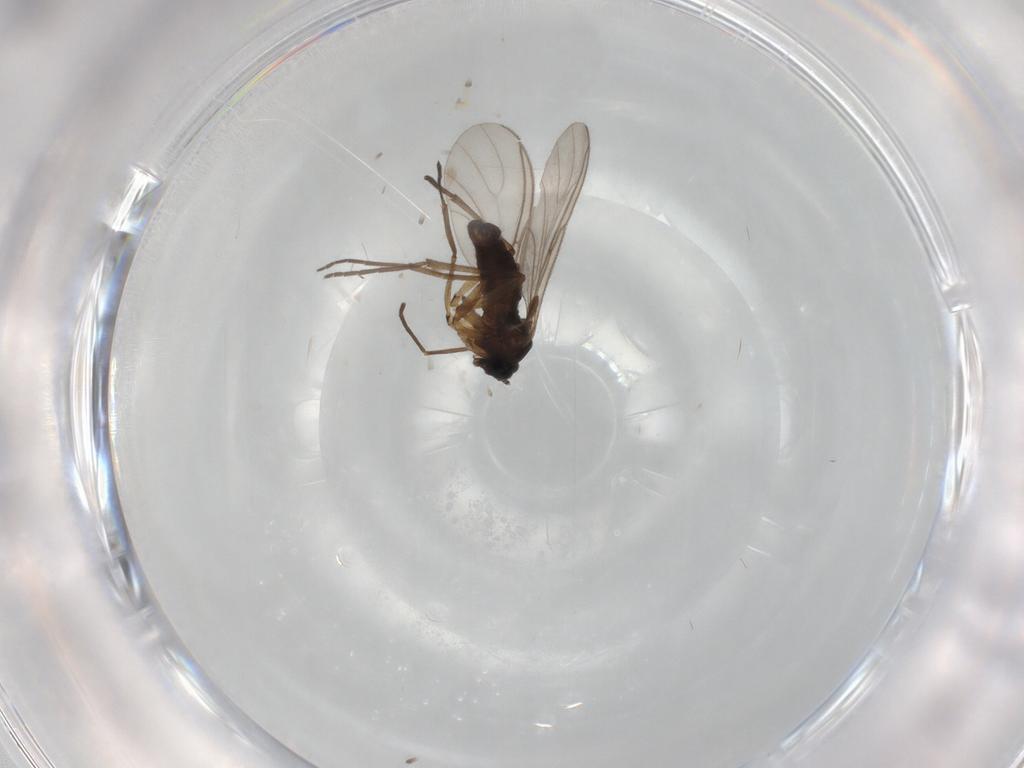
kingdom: Animalia
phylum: Arthropoda
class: Insecta
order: Diptera
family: Sciaridae
